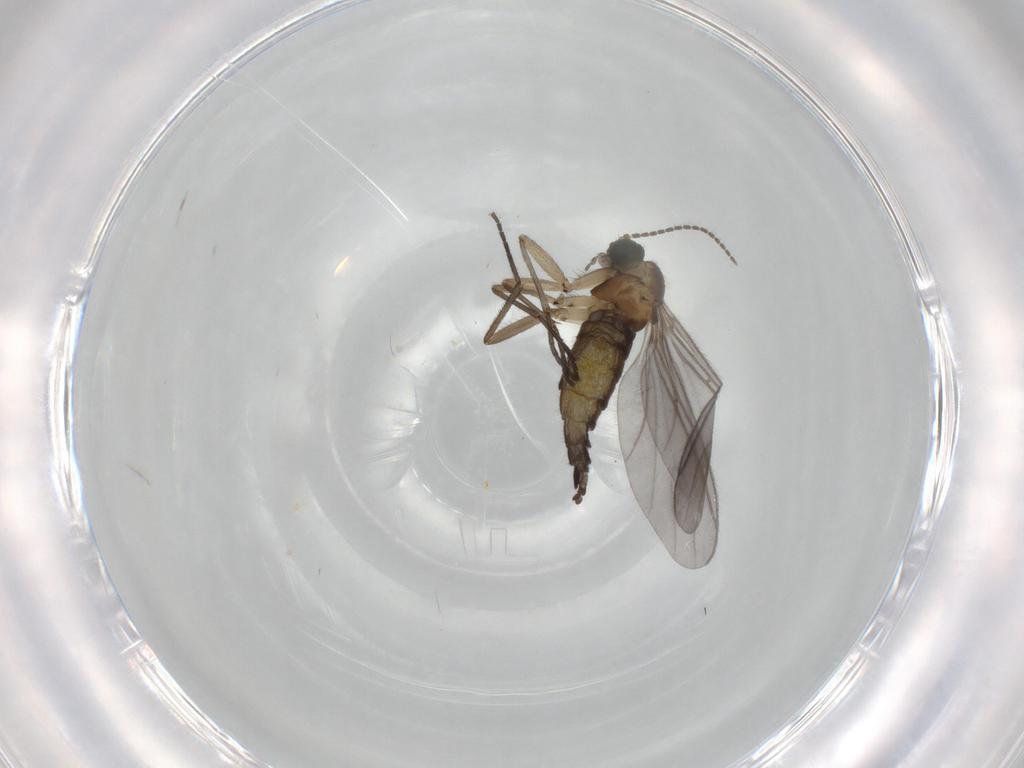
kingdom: Animalia
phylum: Arthropoda
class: Insecta
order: Diptera
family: Sciaridae
